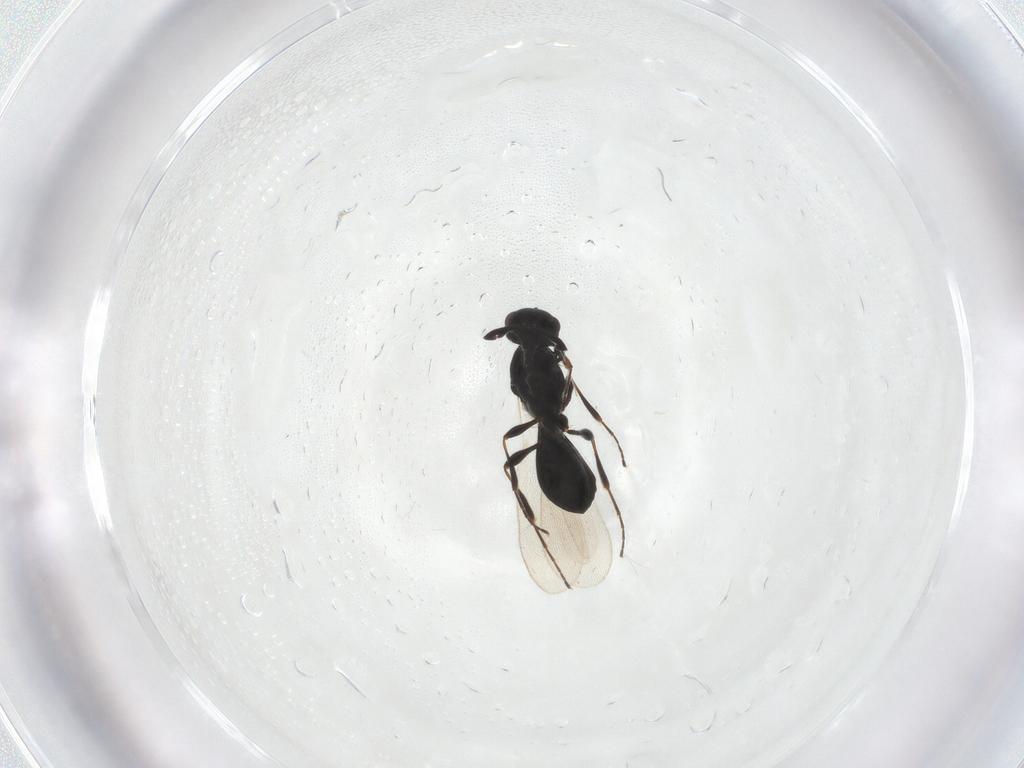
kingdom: Animalia
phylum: Arthropoda
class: Insecta
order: Diptera
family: Mythicomyiidae
